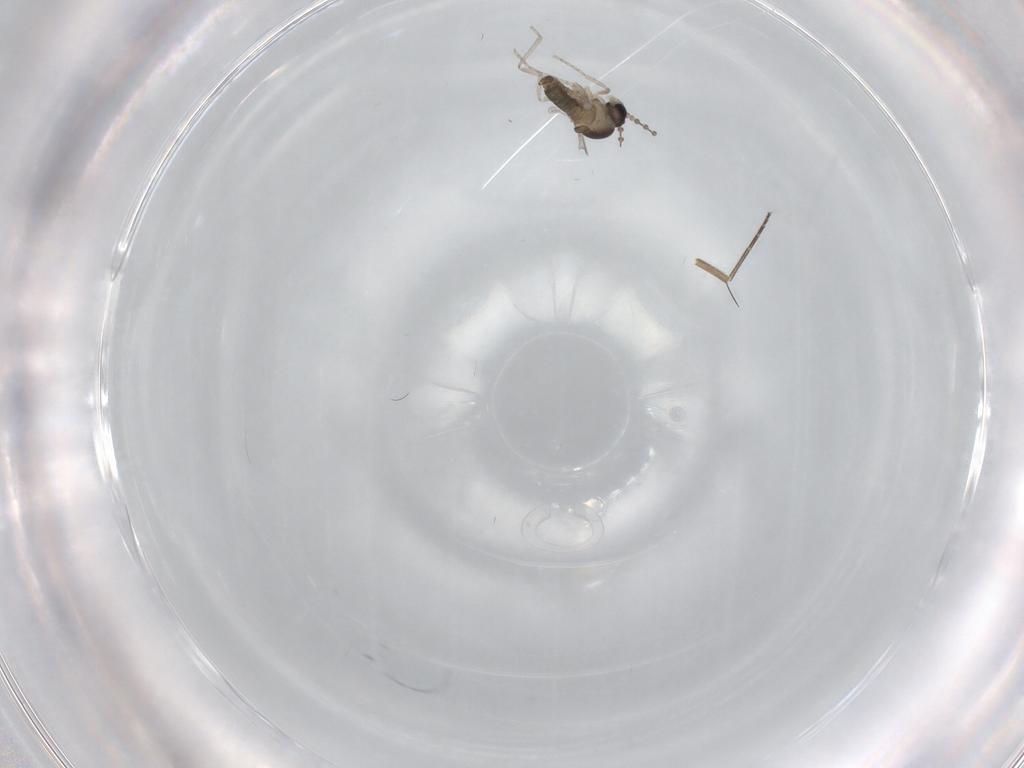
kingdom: Animalia
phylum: Arthropoda
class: Insecta
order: Diptera
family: Cecidomyiidae
